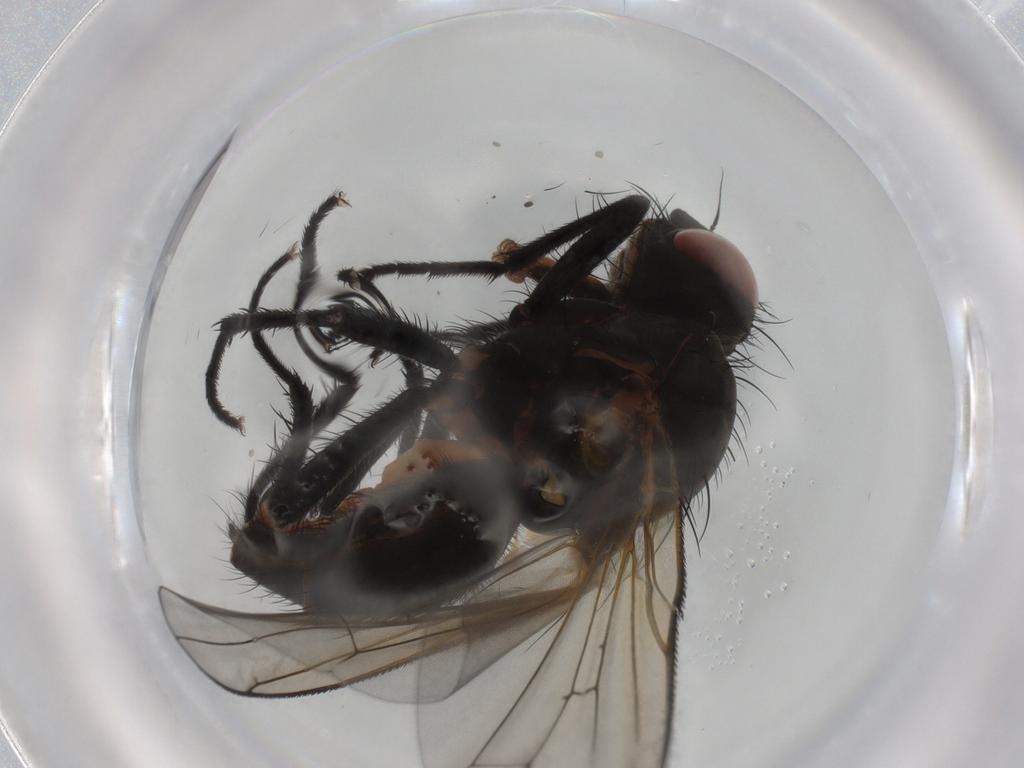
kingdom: Animalia
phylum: Arthropoda
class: Insecta
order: Diptera
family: Anthomyiidae
